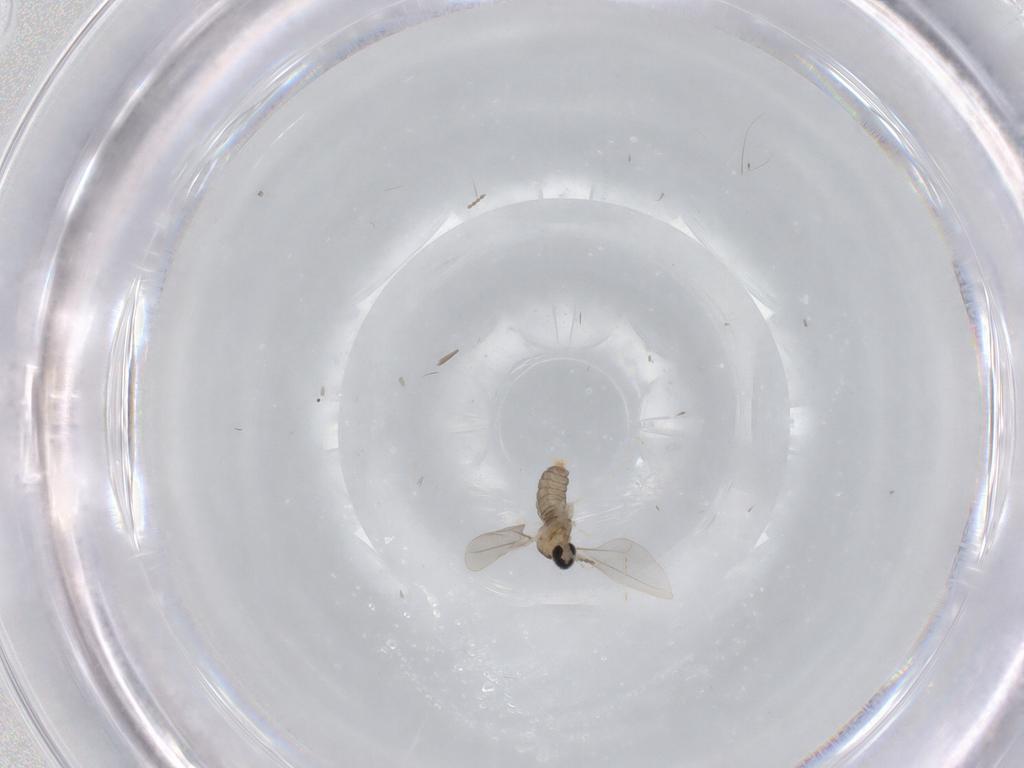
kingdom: Animalia
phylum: Arthropoda
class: Insecta
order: Diptera
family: Cecidomyiidae
